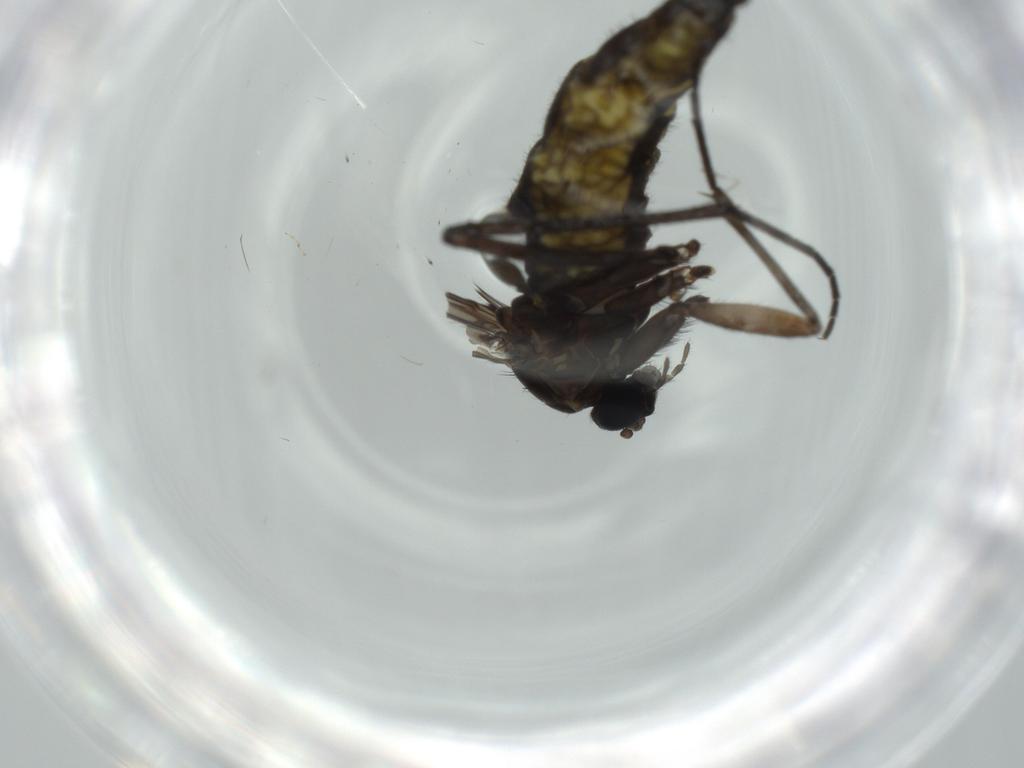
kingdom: Animalia
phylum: Arthropoda
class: Insecta
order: Diptera
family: Sciaridae
